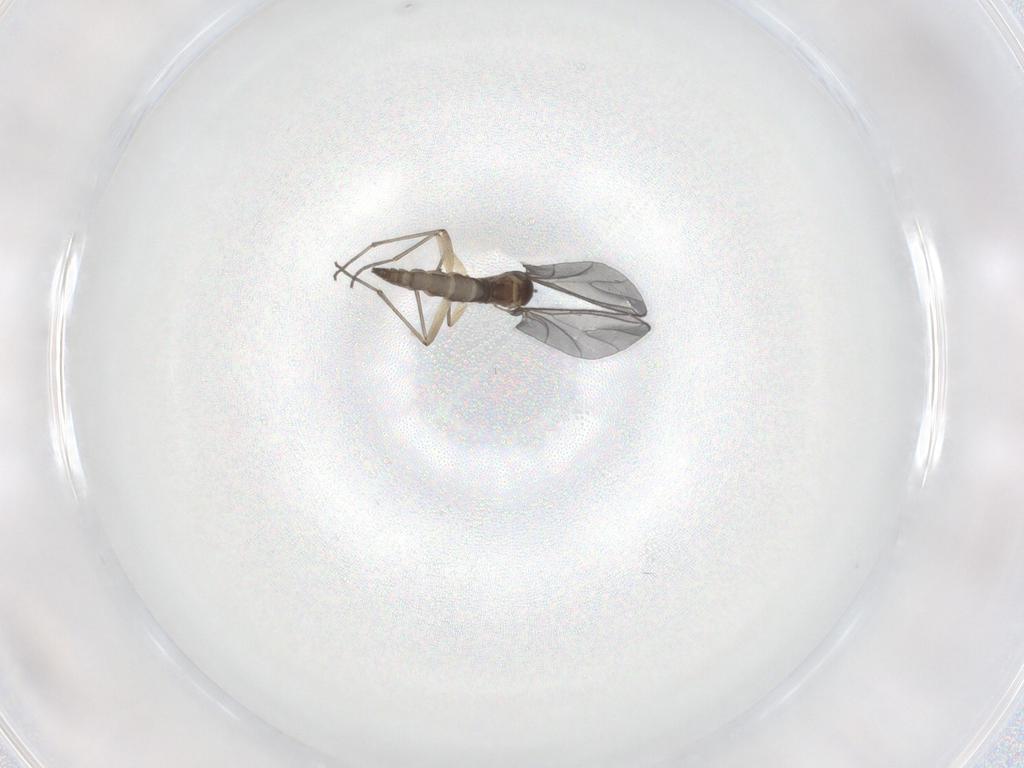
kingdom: Animalia
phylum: Arthropoda
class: Insecta
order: Diptera
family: Sciaridae
